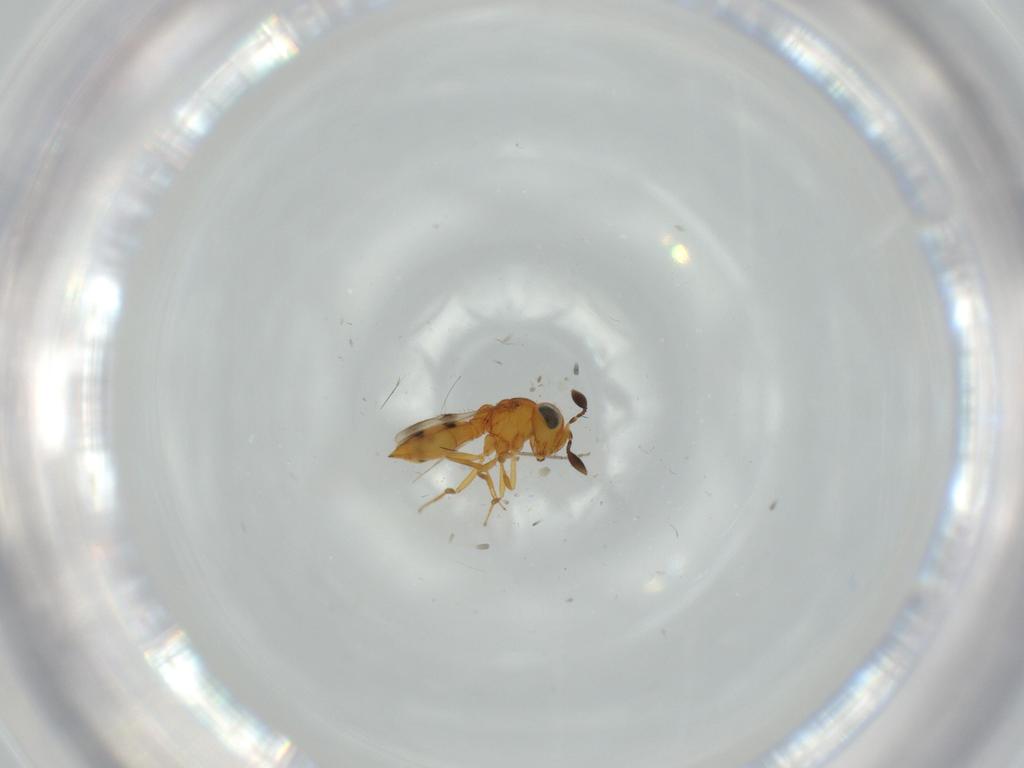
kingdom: Animalia
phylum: Arthropoda
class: Insecta
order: Hymenoptera
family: Scelionidae
